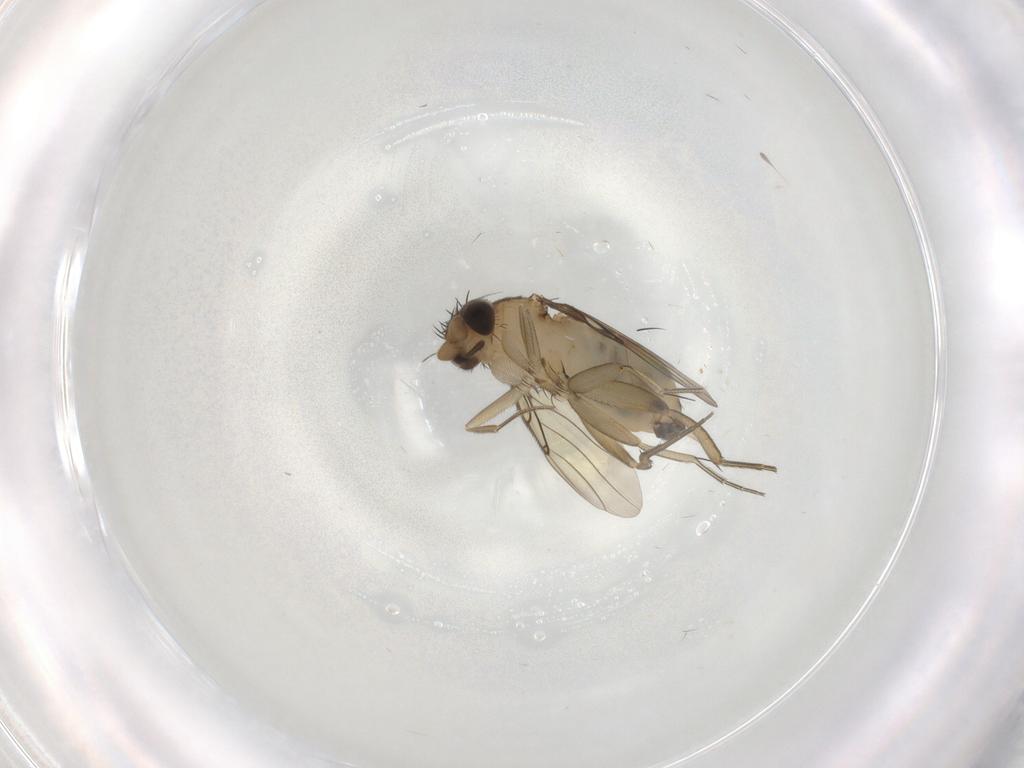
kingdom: Animalia
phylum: Arthropoda
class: Insecta
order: Diptera
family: Phoridae
